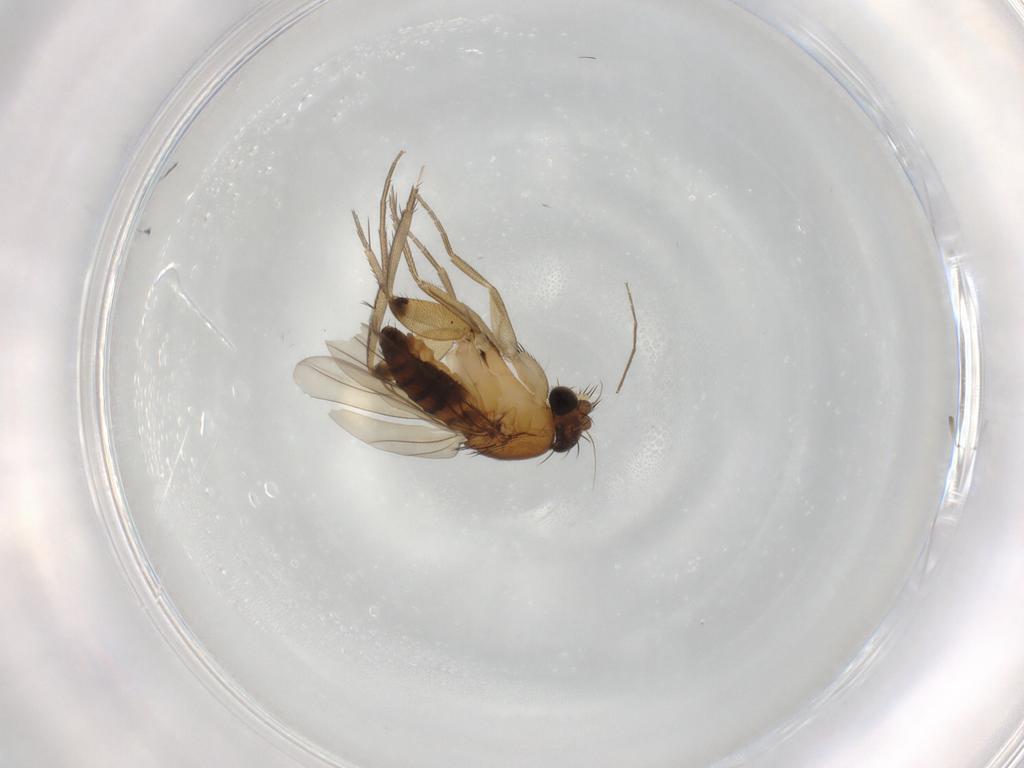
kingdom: Animalia
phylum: Arthropoda
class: Insecta
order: Diptera
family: Phoridae
